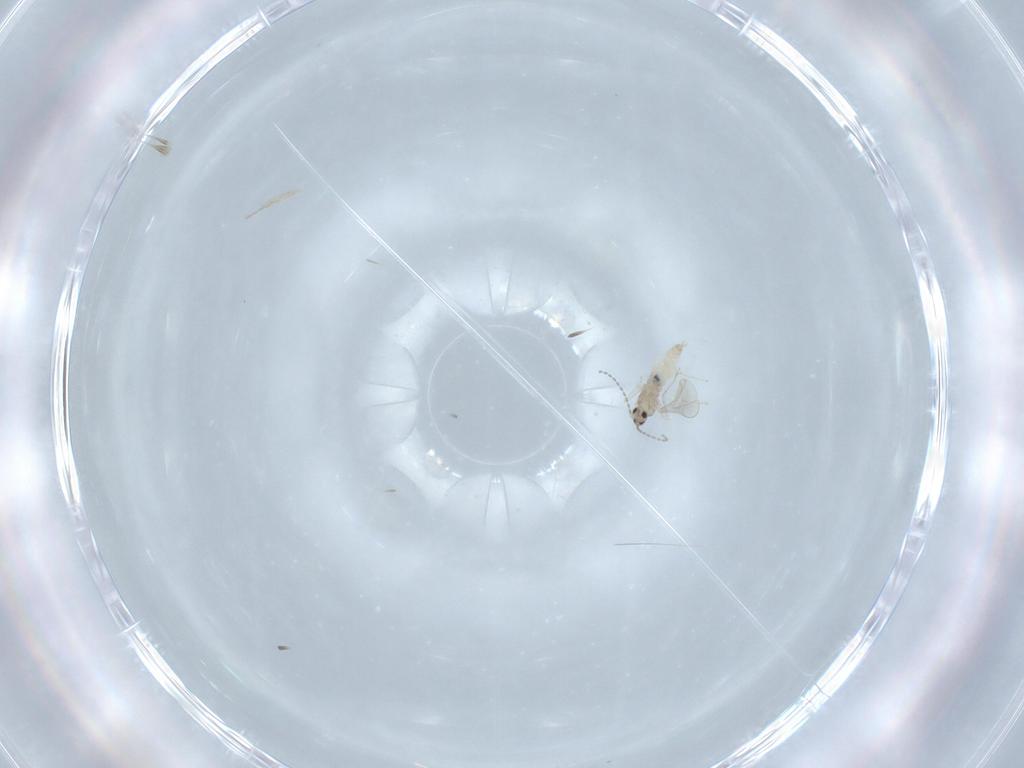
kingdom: Animalia
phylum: Arthropoda
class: Insecta
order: Diptera
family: Cecidomyiidae
